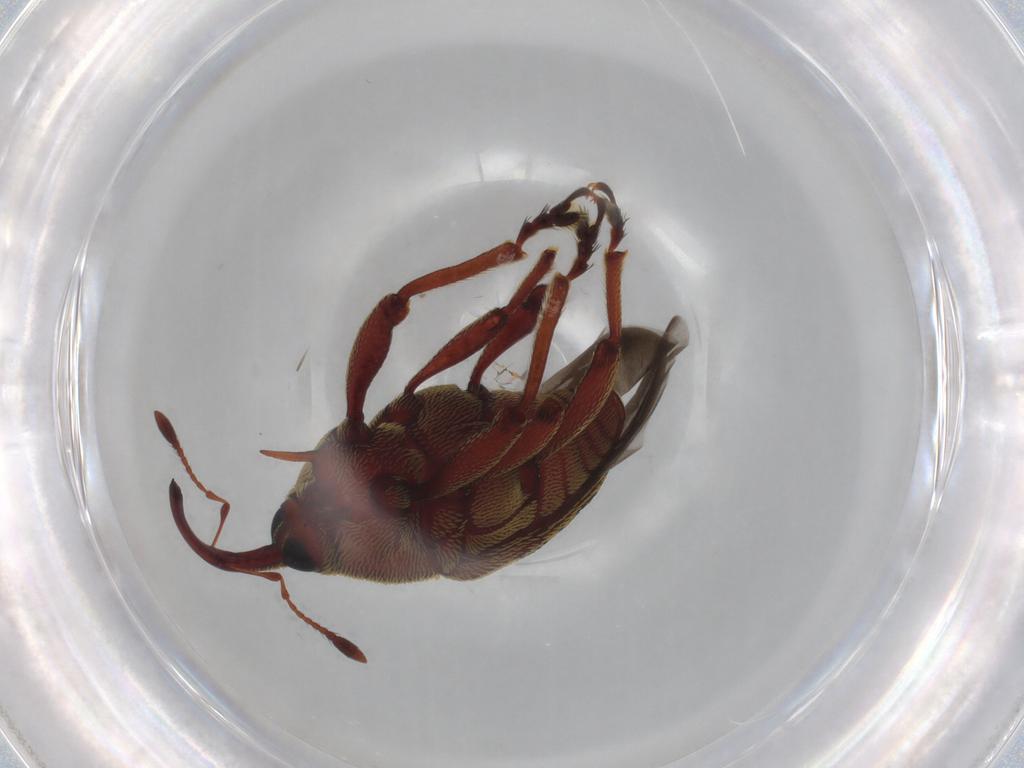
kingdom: Animalia
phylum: Arthropoda
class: Insecta
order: Coleoptera
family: Curculionidae
